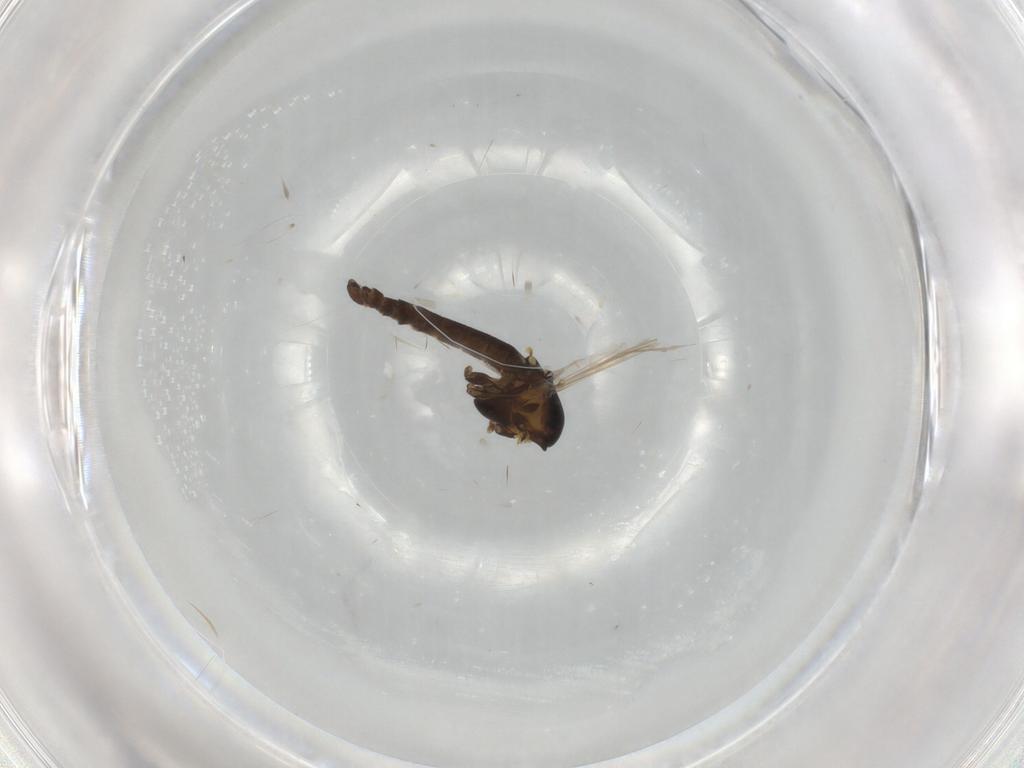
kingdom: Animalia
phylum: Arthropoda
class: Insecta
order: Diptera
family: Chironomidae
